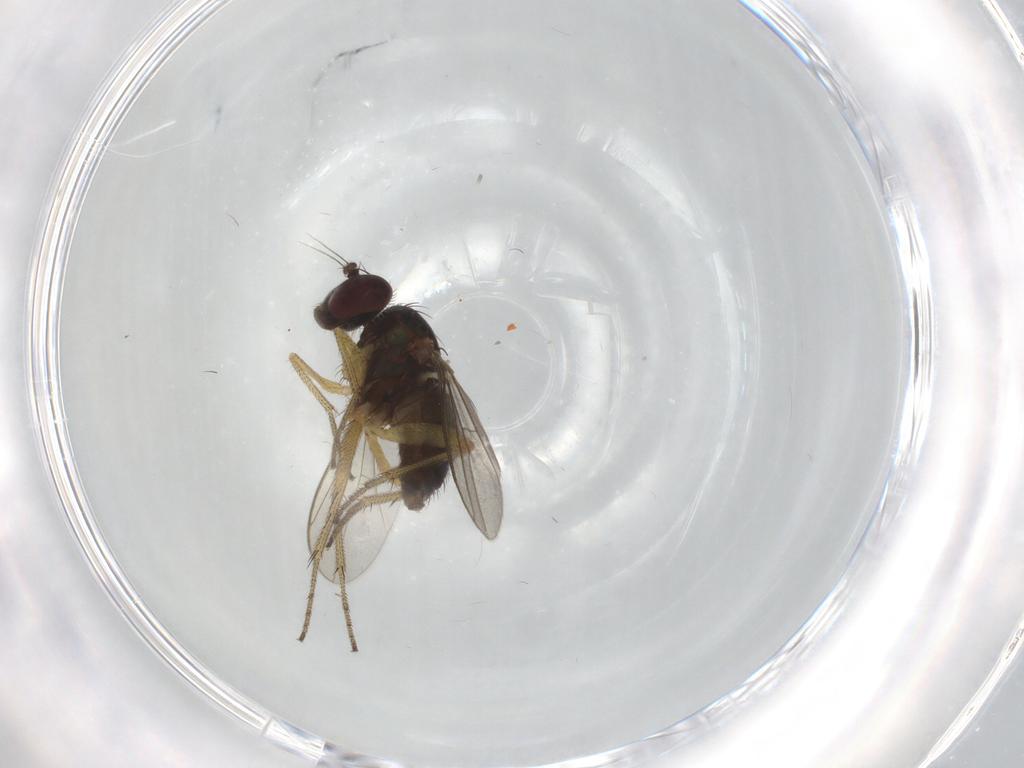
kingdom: Animalia
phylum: Arthropoda
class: Insecta
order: Diptera
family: Dolichopodidae
